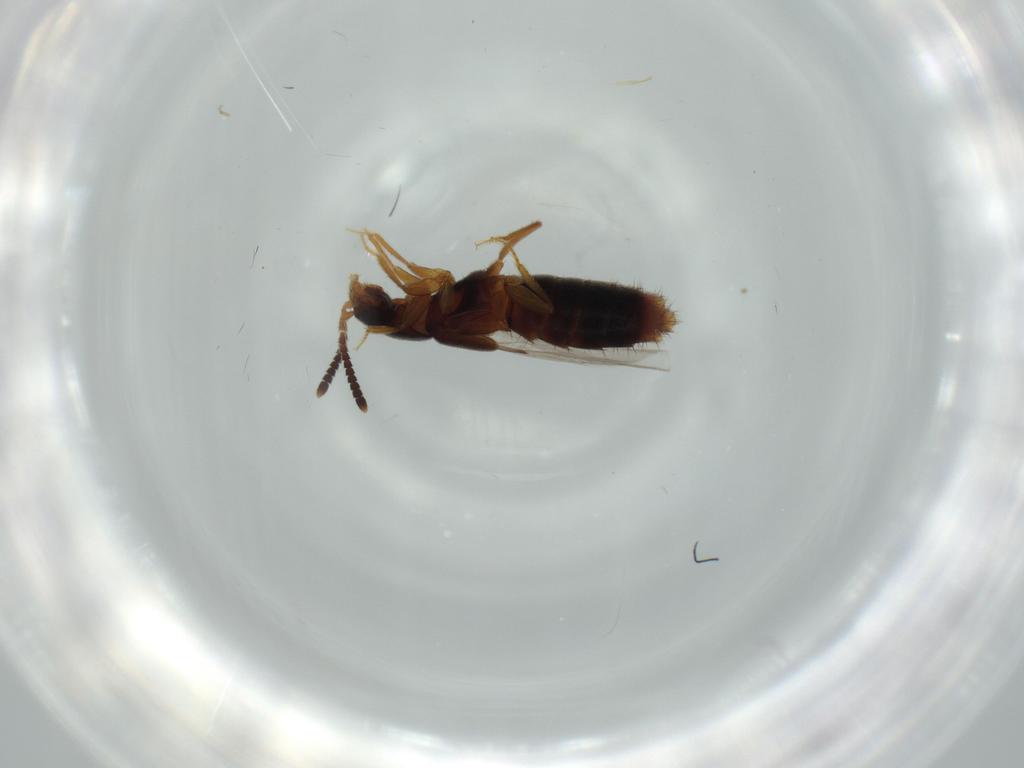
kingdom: Animalia
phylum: Arthropoda
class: Insecta
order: Coleoptera
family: Staphylinidae
